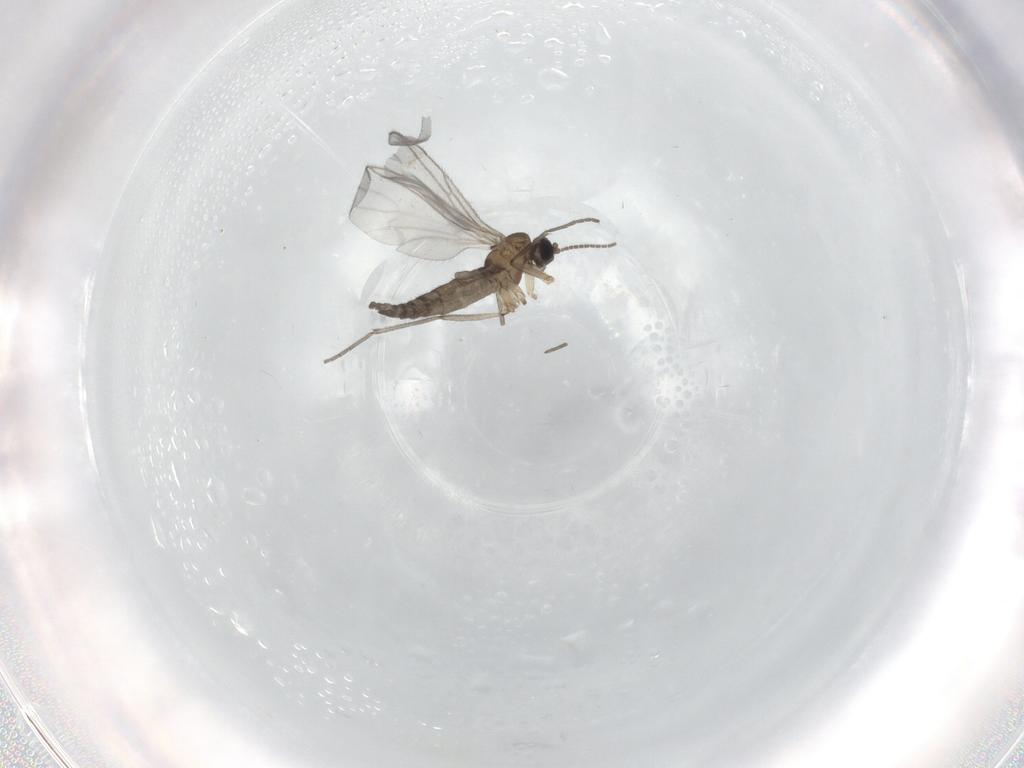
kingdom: Animalia
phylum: Arthropoda
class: Insecta
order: Diptera
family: Sciaridae
